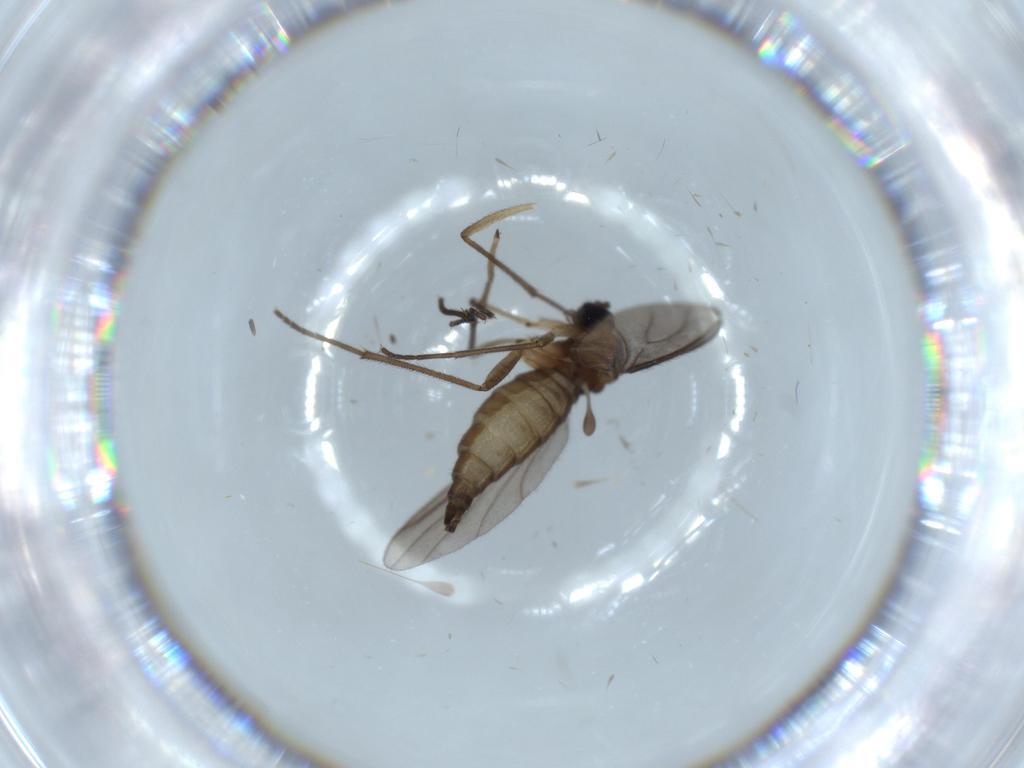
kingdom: Animalia
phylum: Arthropoda
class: Insecta
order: Diptera
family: Sciaridae
